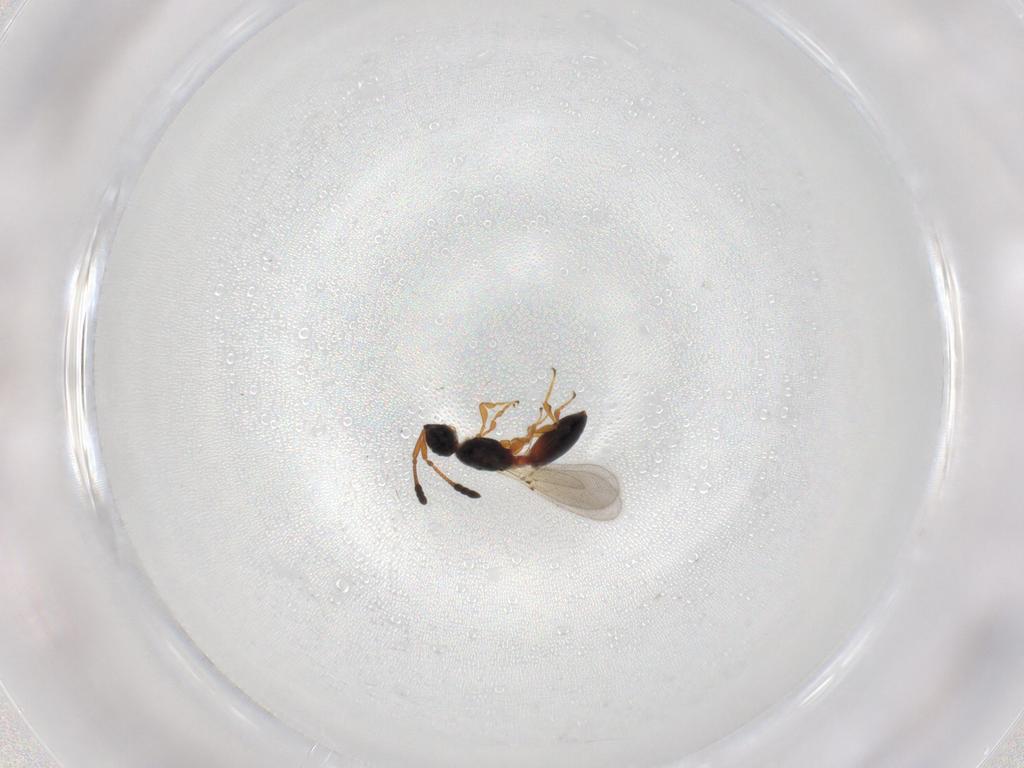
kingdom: Animalia
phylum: Arthropoda
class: Insecta
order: Hymenoptera
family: Diapriidae
